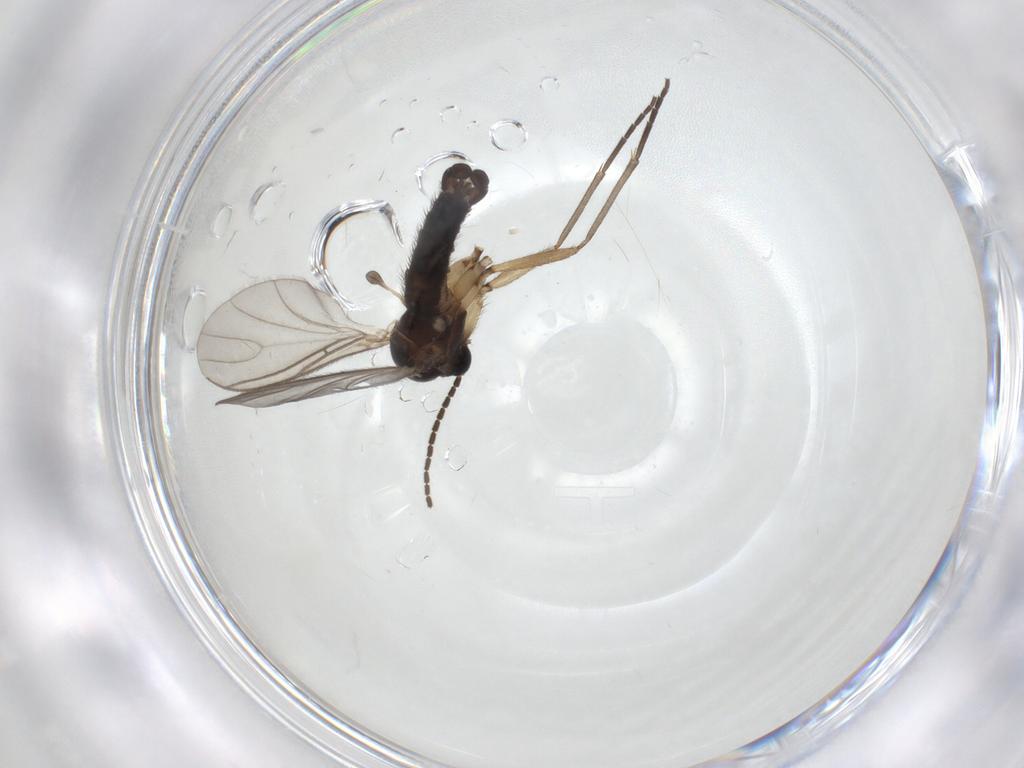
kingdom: Animalia
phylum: Arthropoda
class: Insecta
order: Diptera
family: Sciaridae
